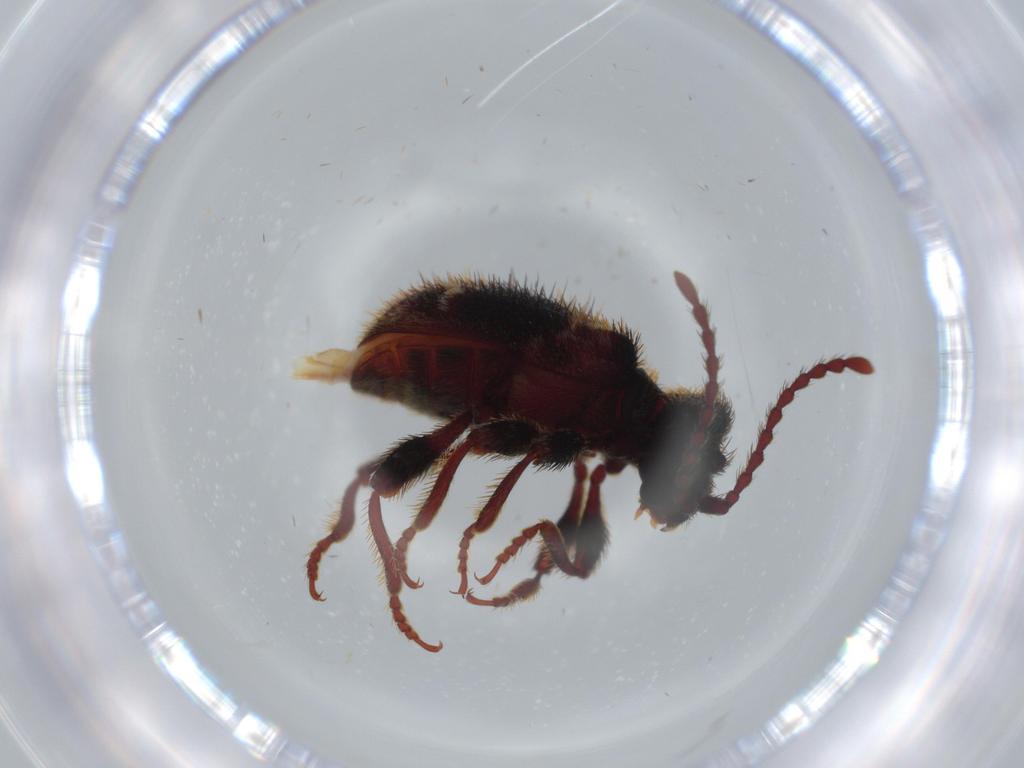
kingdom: Animalia
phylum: Arthropoda
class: Insecta
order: Coleoptera
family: Ptinidae
